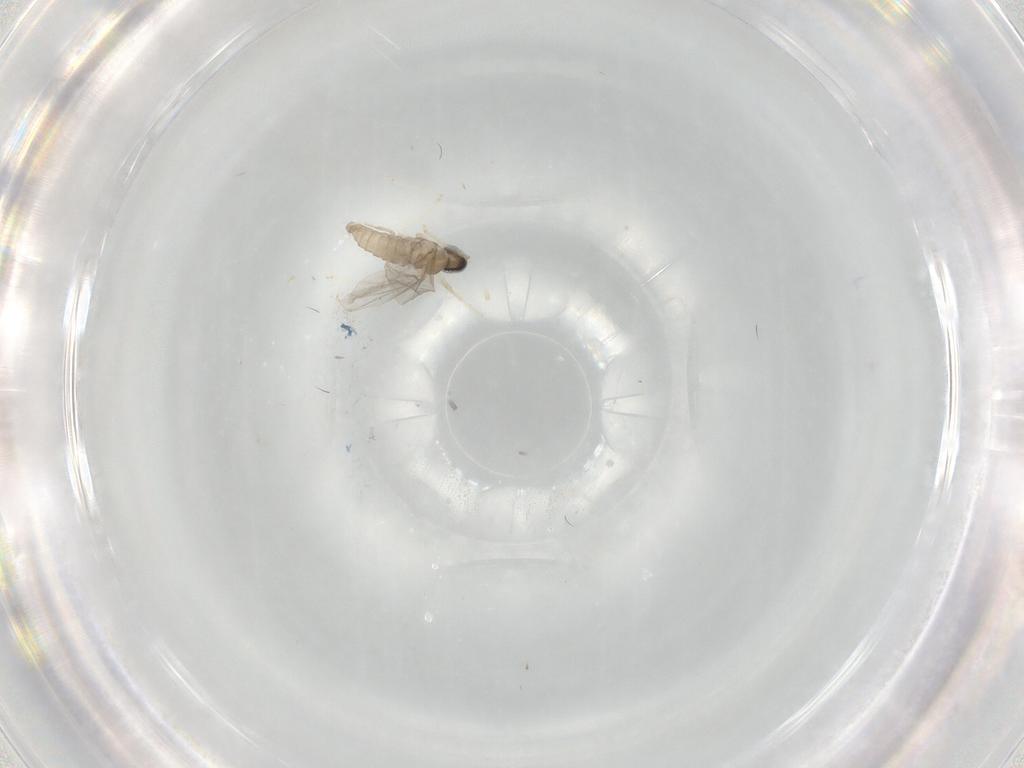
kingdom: Animalia
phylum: Arthropoda
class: Insecta
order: Diptera
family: Cecidomyiidae
